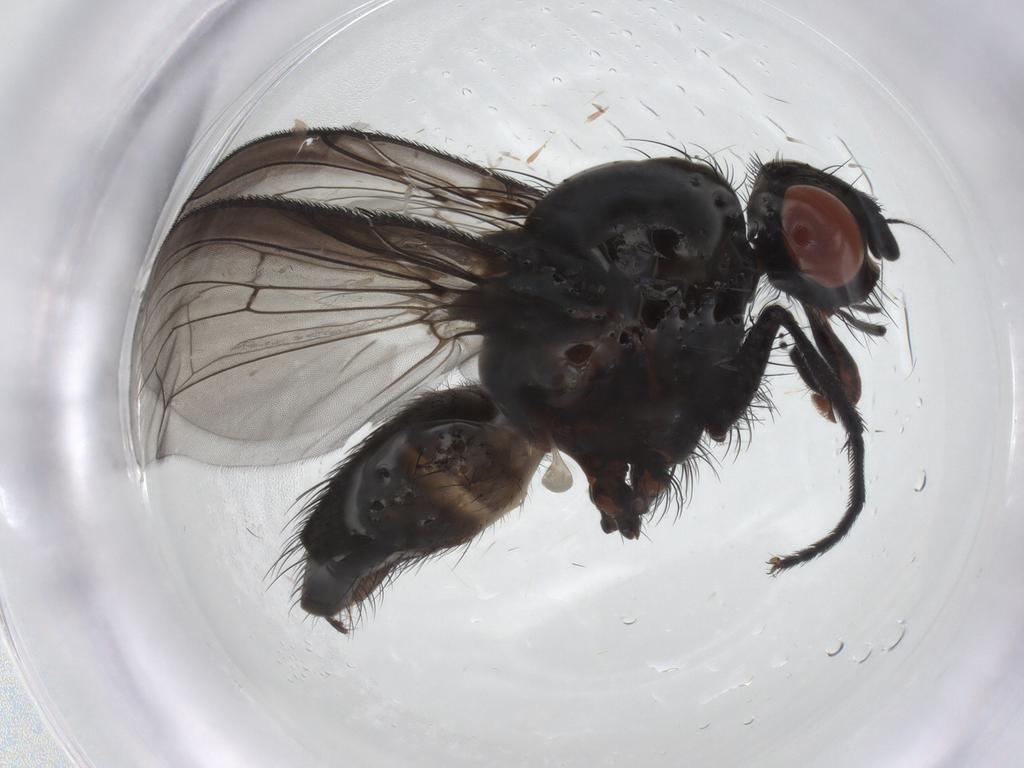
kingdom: Animalia
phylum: Arthropoda
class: Insecta
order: Diptera
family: Anthomyiidae
